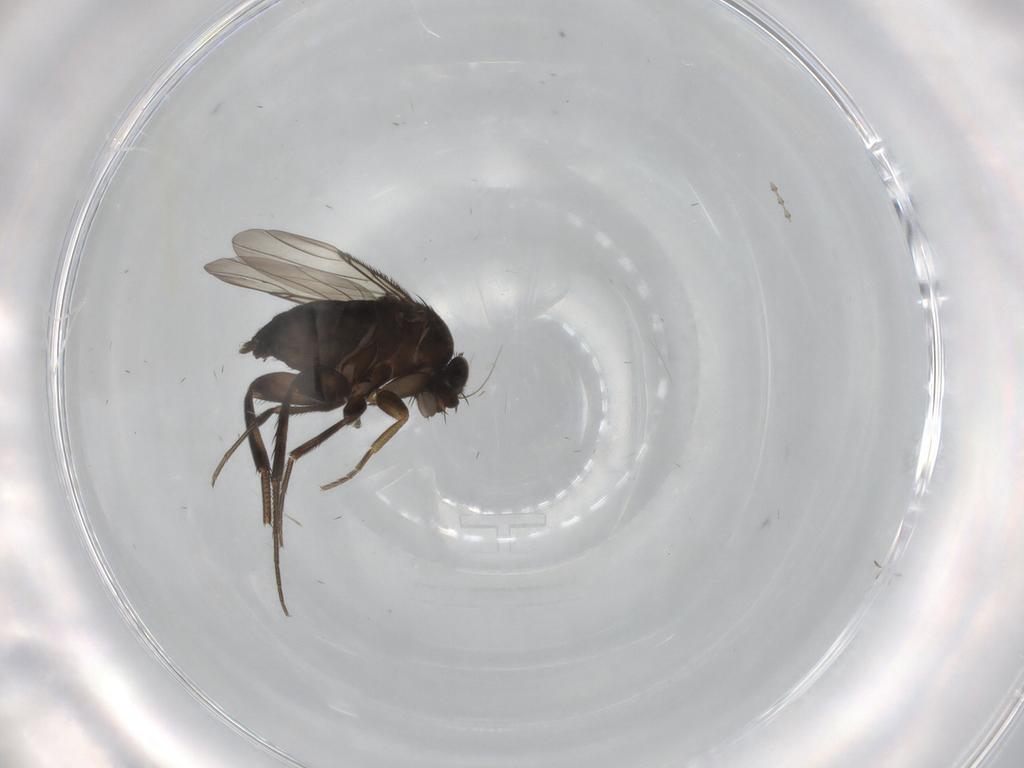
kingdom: Animalia
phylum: Arthropoda
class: Insecta
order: Diptera
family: Phoridae
